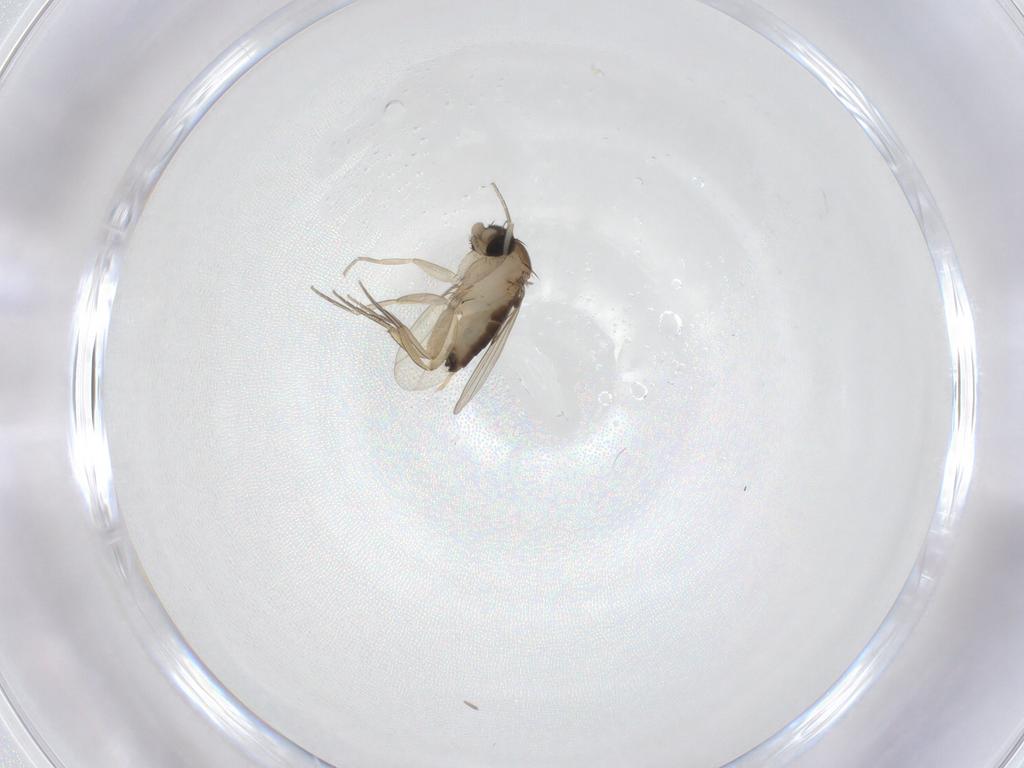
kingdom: Animalia
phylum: Arthropoda
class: Insecta
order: Diptera
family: Phoridae
